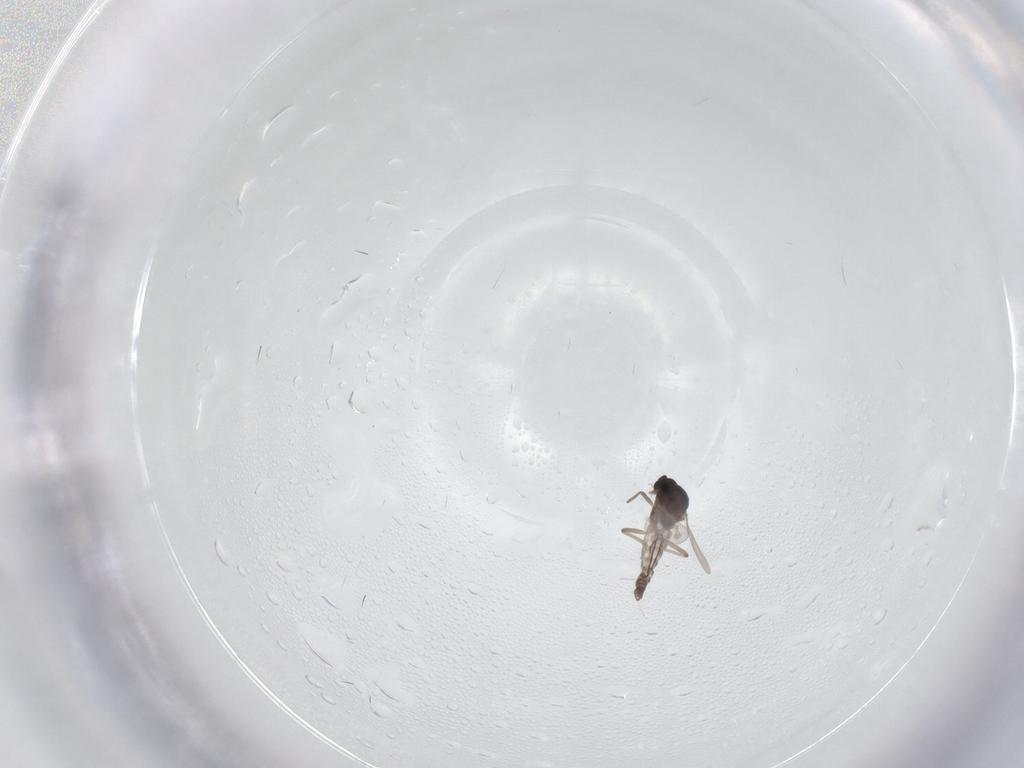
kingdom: Animalia
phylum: Arthropoda
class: Insecta
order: Diptera
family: Ceratopogonidae
